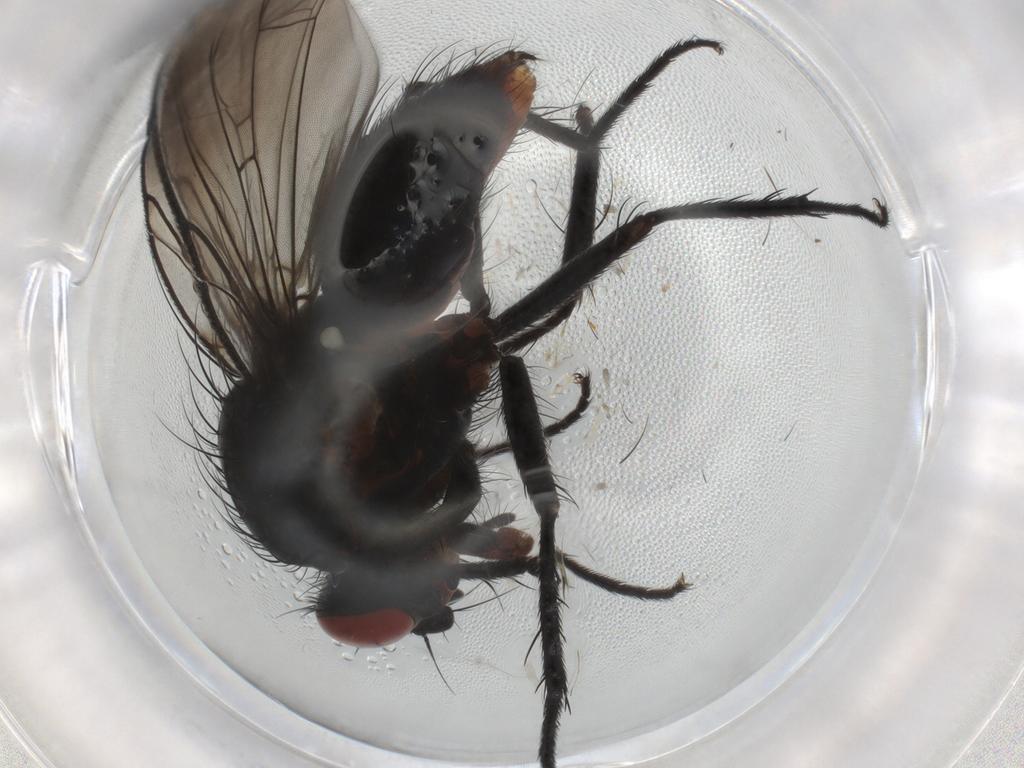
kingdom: Animalia
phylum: Arthropoda
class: Insecta
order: Diptera
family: Anthomyiidae
